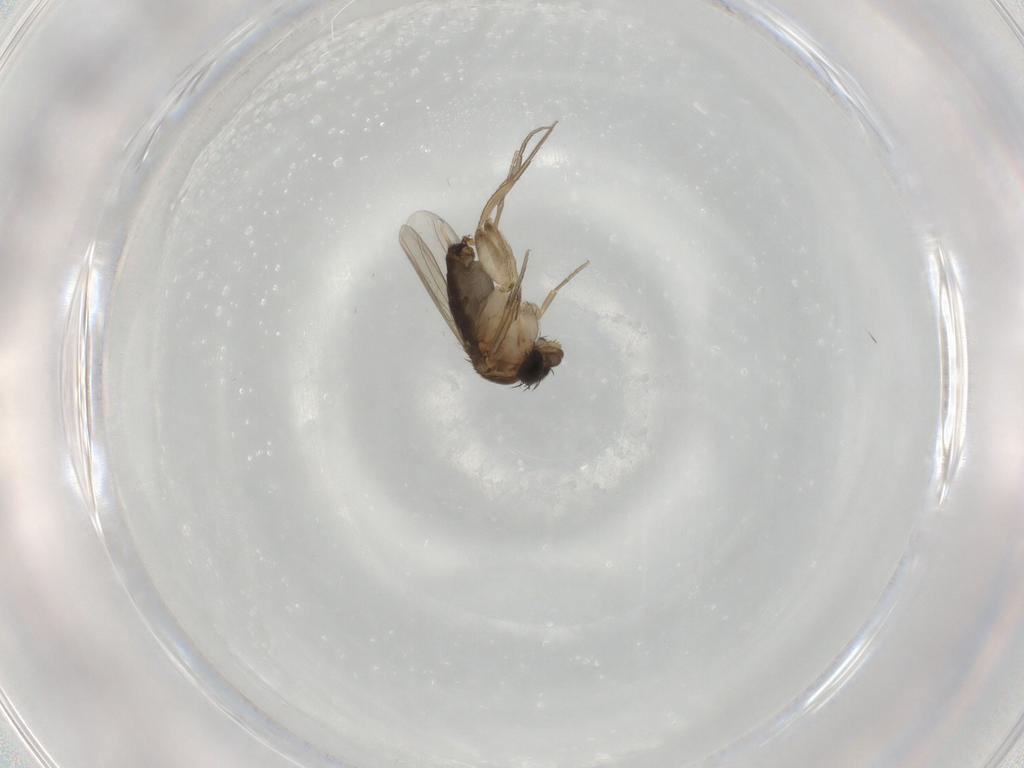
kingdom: Animalia
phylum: Arthropoda
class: Insecta
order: Diptera
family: Phoridae
